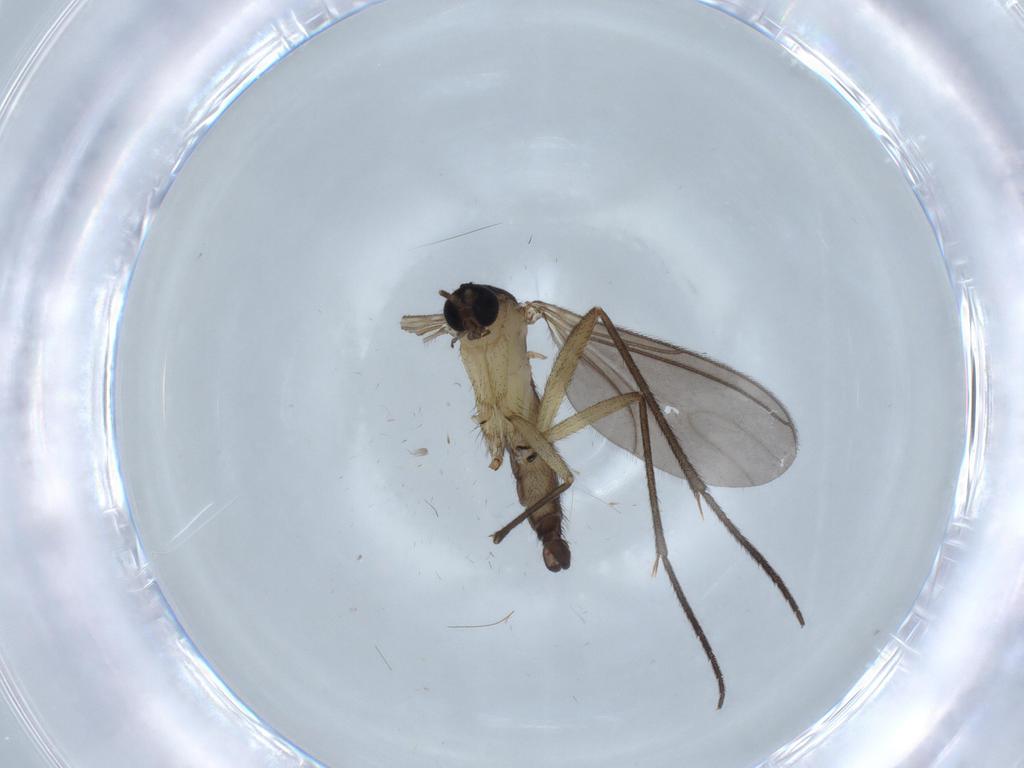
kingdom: Animalia
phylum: Arthropoda
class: Insecta
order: Diptera
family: Sciaridae
